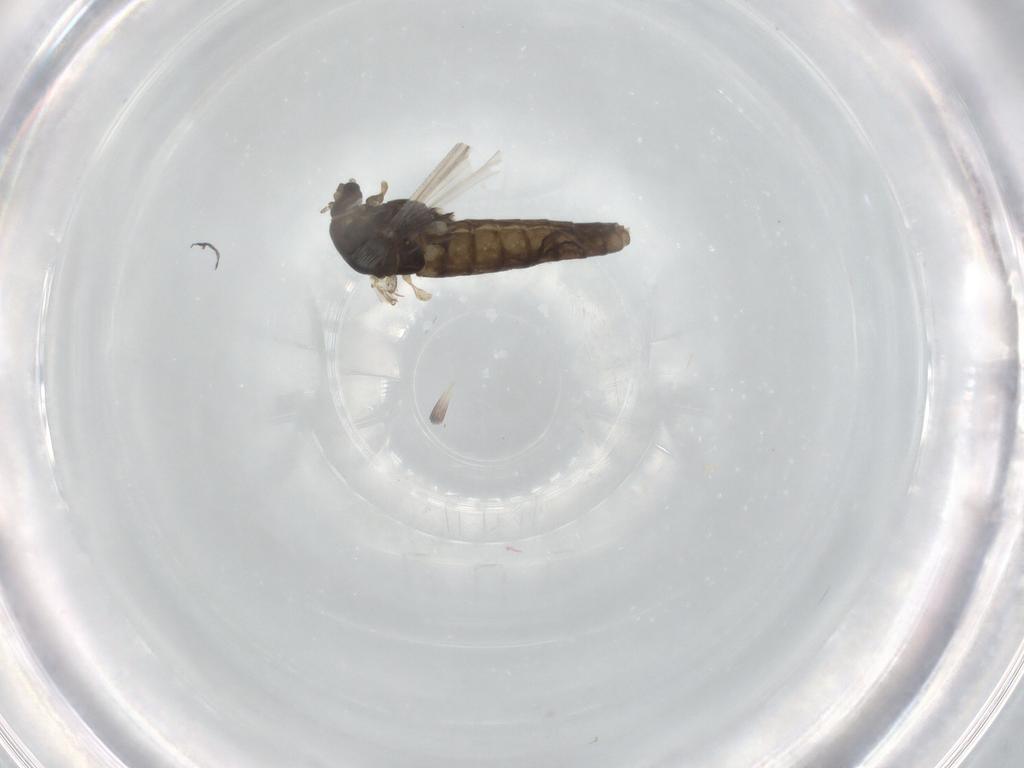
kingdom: Animalia
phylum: Arthropoda
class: Insecta
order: Diptera
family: Chironomidae
